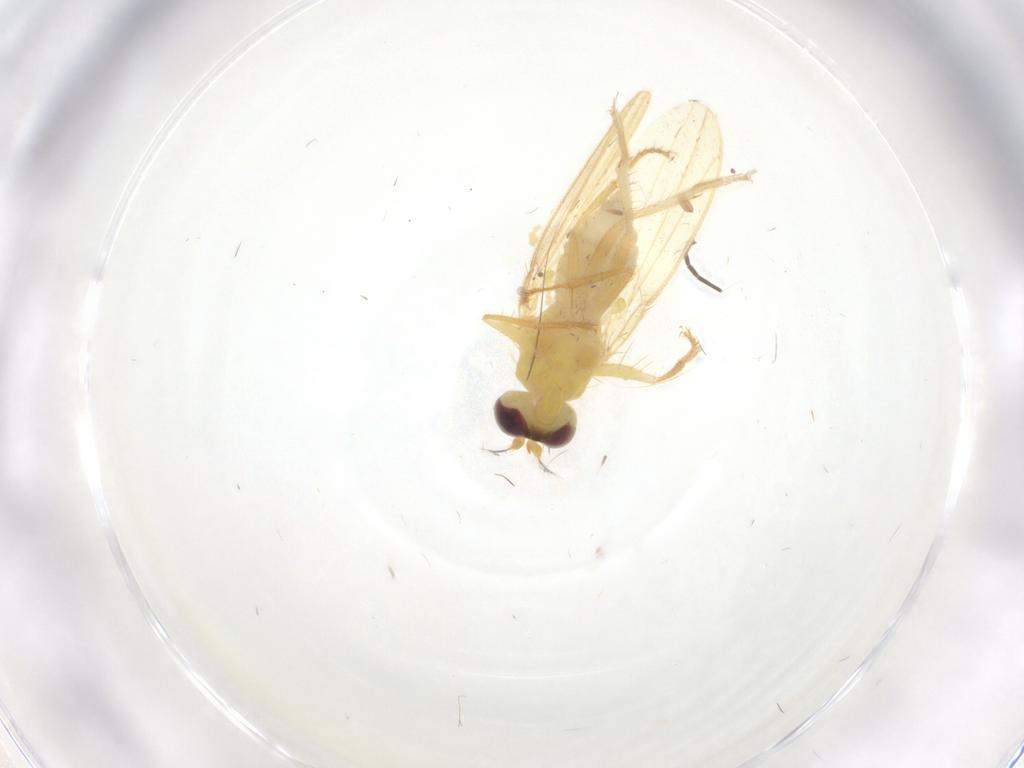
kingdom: Animalia
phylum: Arthropoda
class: Insecta
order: Diptera
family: Periscelididae
